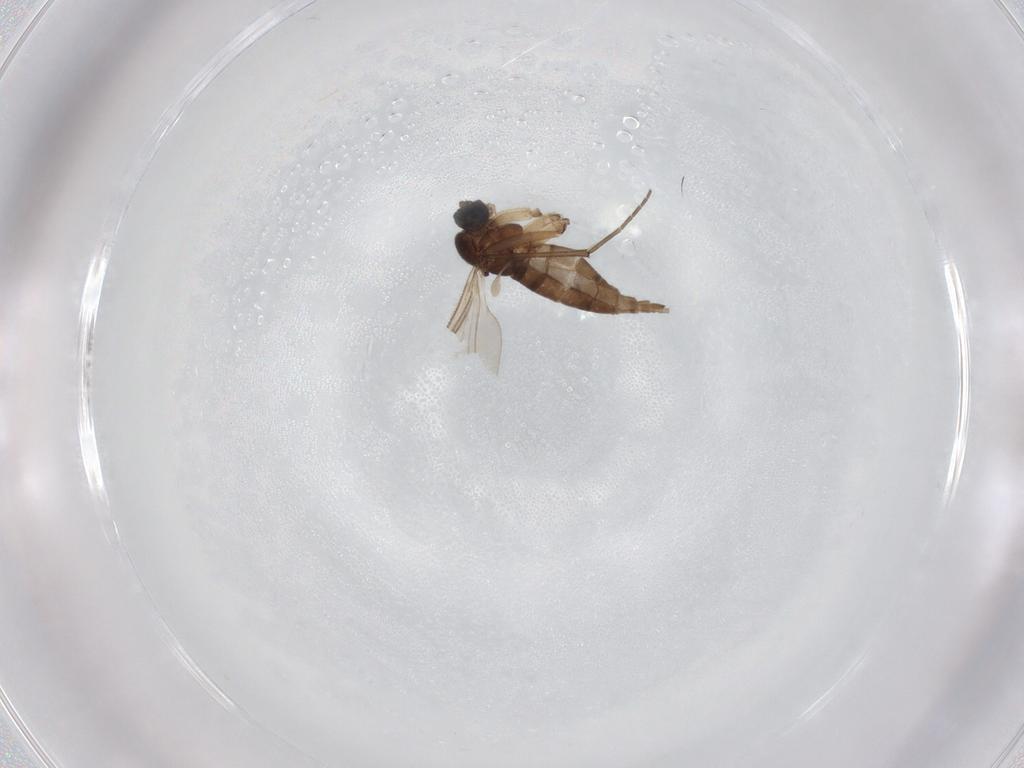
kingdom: Animalia
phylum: Arthropoda
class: Insecta
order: Diptera
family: Sciaridae
